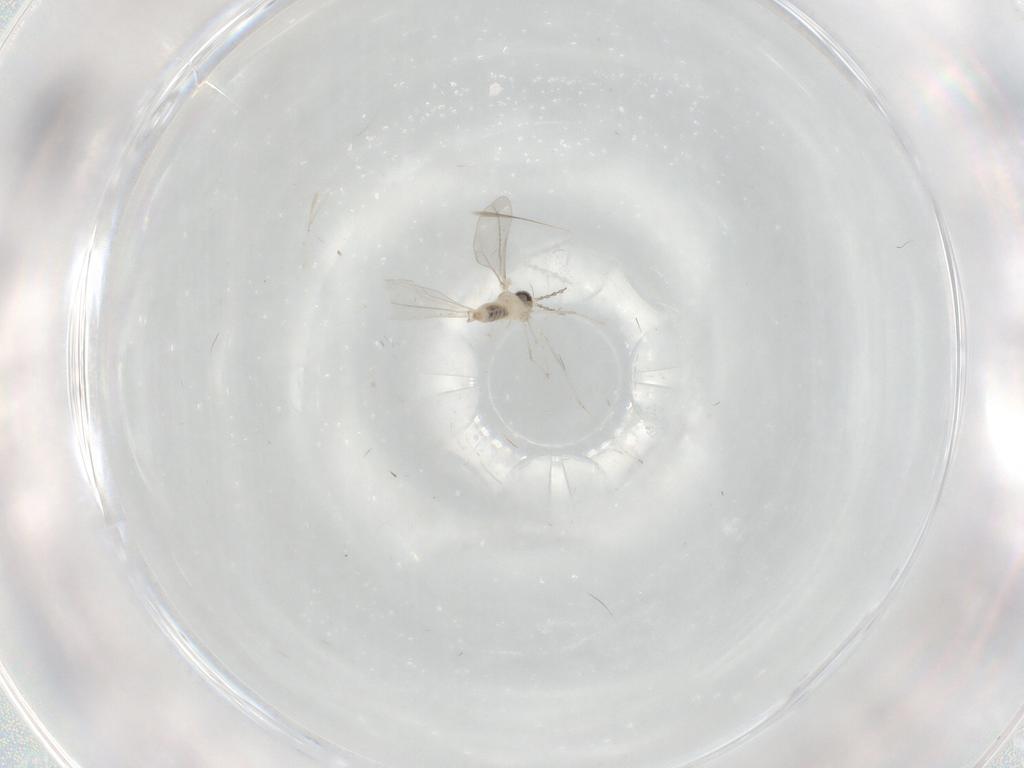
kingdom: Animalia
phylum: Arthropoda
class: Insecta
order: Diptera
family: Cecidomyiidae
